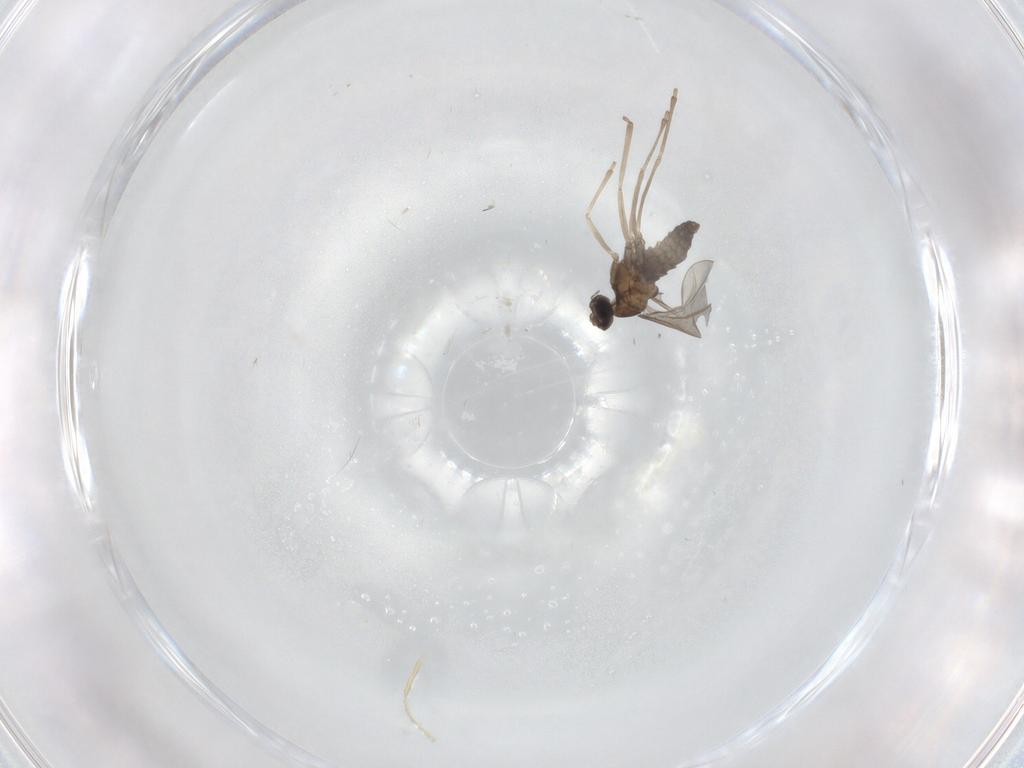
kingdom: Animalia
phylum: Arthropoda
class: Insecta
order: Diptera
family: Cecidomyiidae
